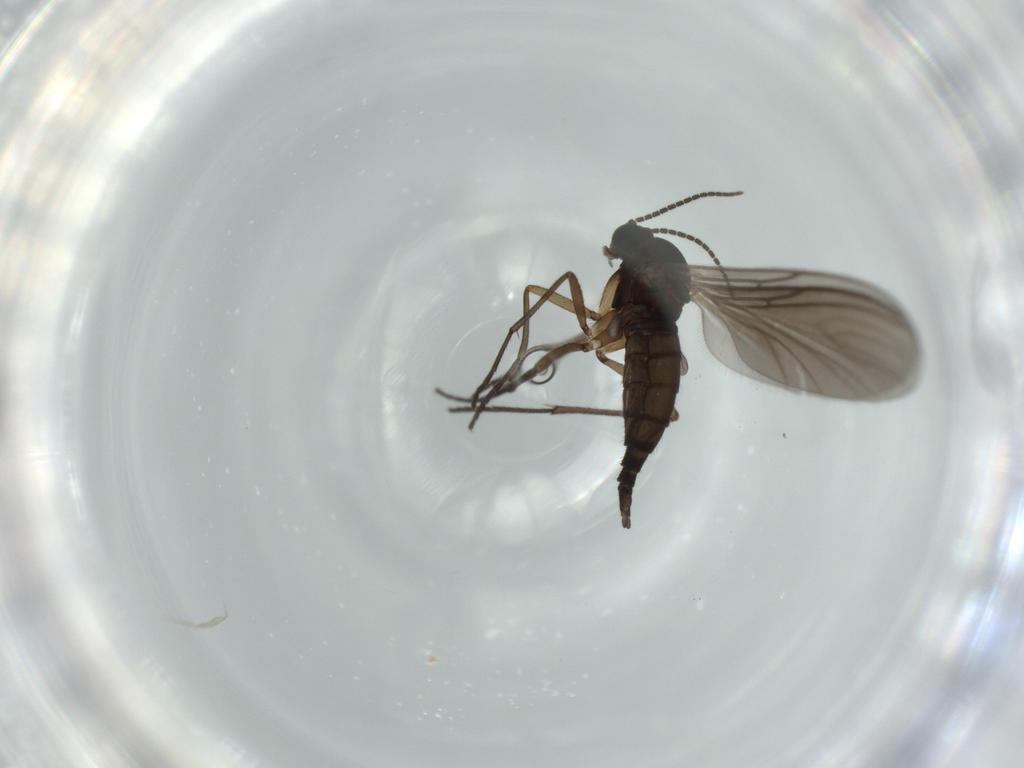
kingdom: Animalia
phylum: Arthropoda
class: Insecta
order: Diptera
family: Sciaridae
